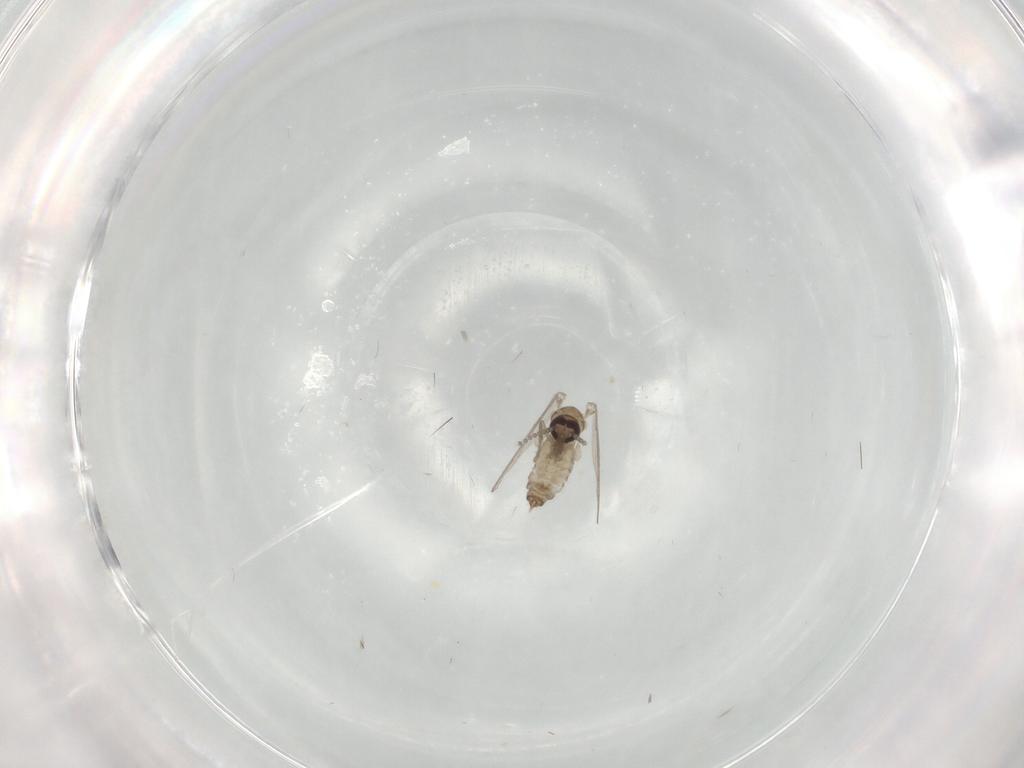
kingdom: Animalia
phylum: Arthropoda
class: Insecta
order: Diptera
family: Psychodidae
